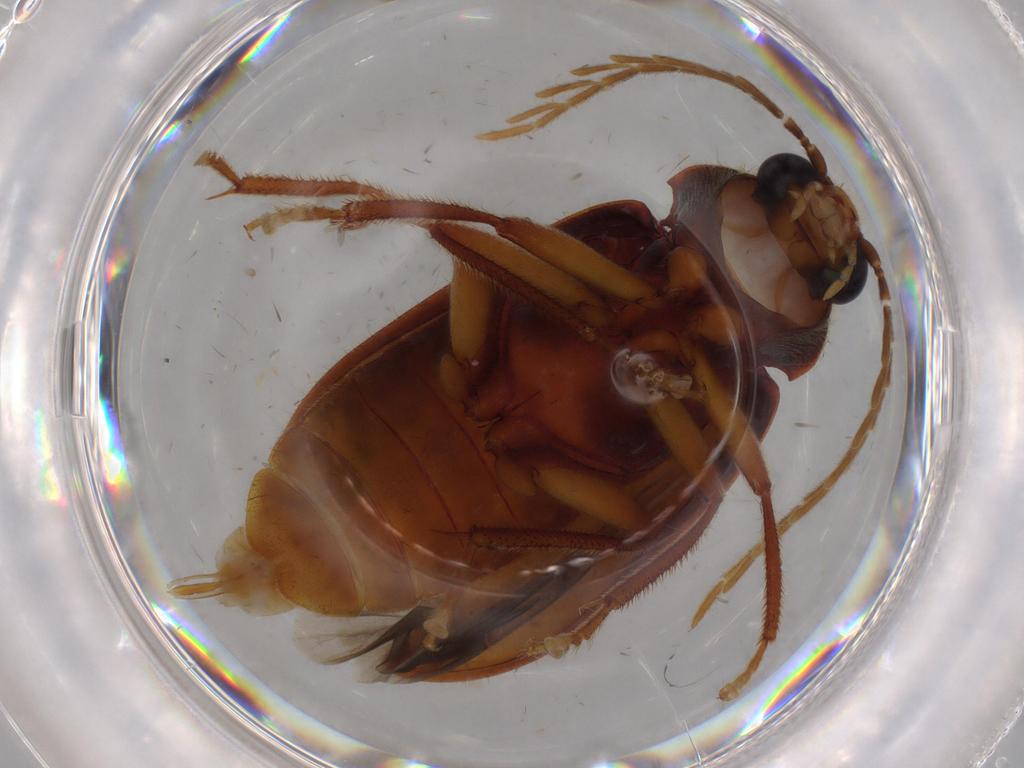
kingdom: Animalia
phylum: Arthropoda
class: Insecta
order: Coleoptera
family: Ptilodactylidae
